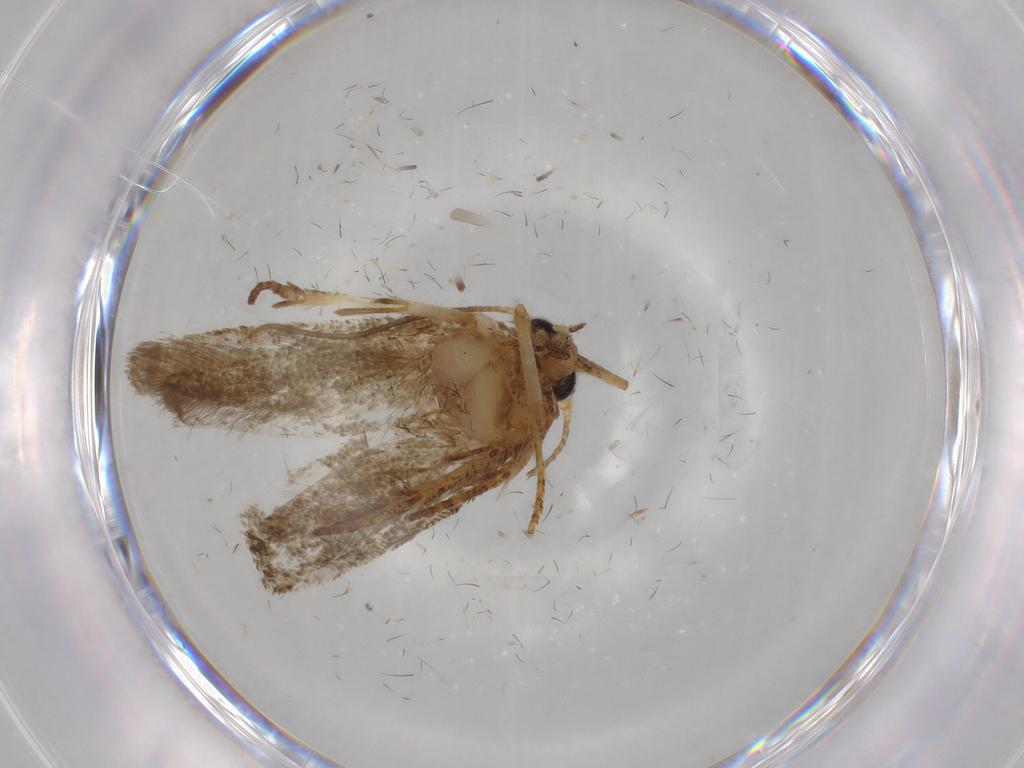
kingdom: Animalia
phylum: Arthropoda
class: Insecta
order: Lepidoptera
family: Blastobasidae
